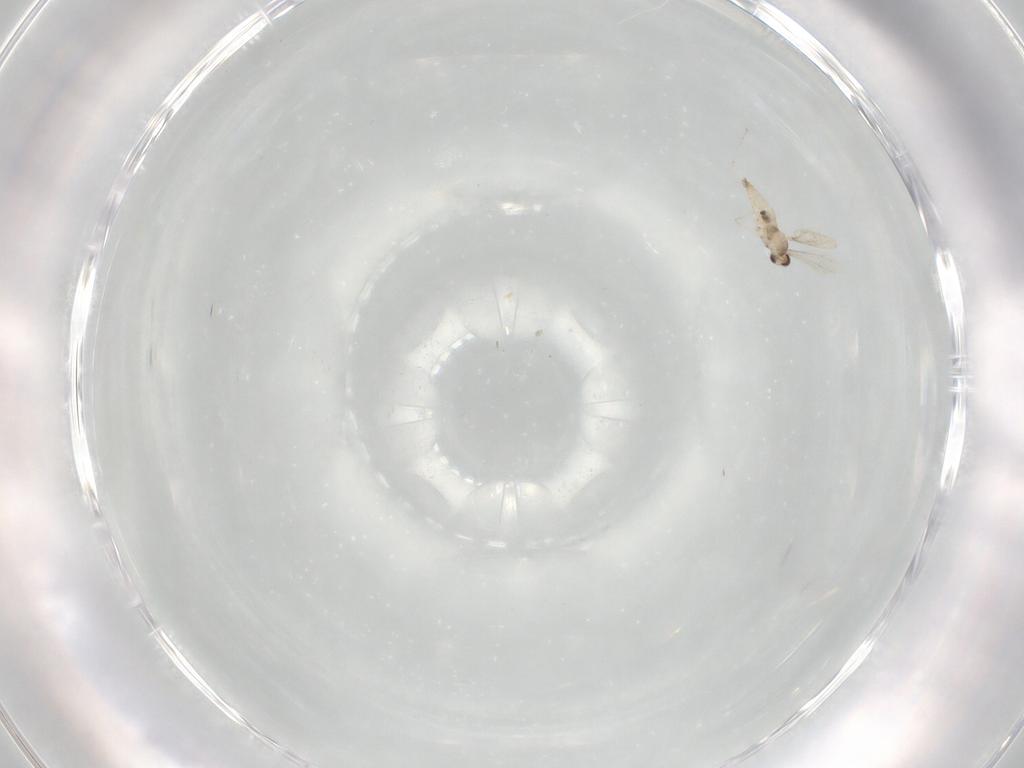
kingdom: Animalia
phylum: Arthropoda
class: Insecta
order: Diptera
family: Cecidomyiidae
